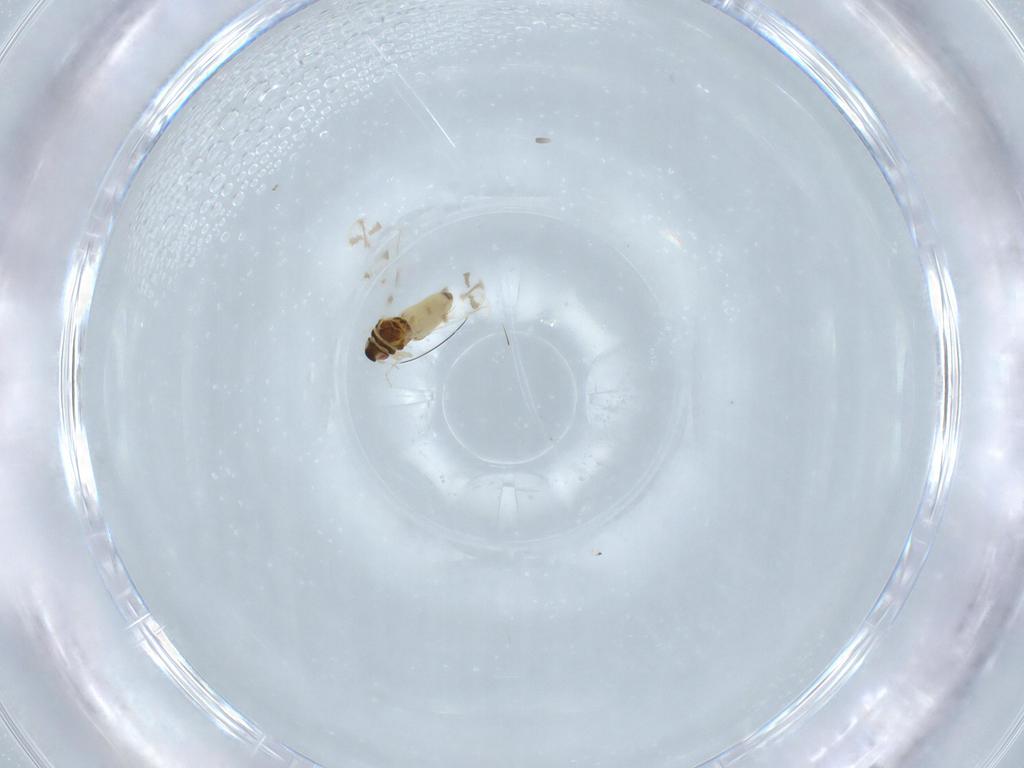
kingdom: Animalia
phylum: Arthropoda
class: Insecta
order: Hemiptera
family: Aleyrodidae
